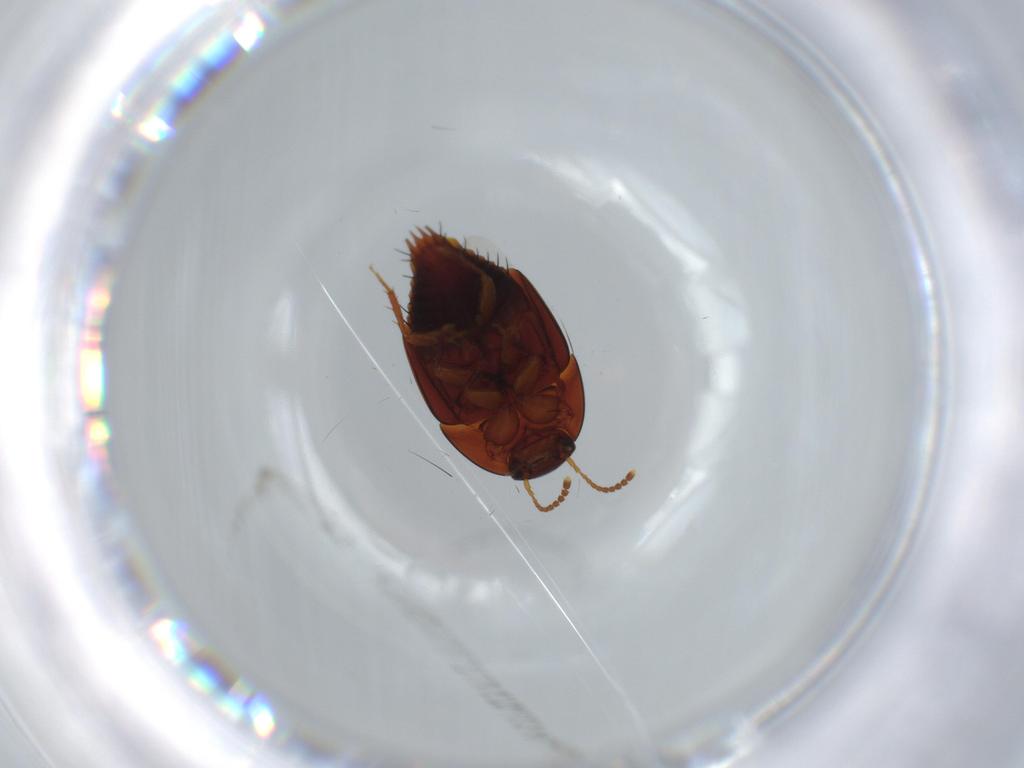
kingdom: Animalia
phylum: Arthropoda
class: Insecta
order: Coleoptera
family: Staphylinidae
